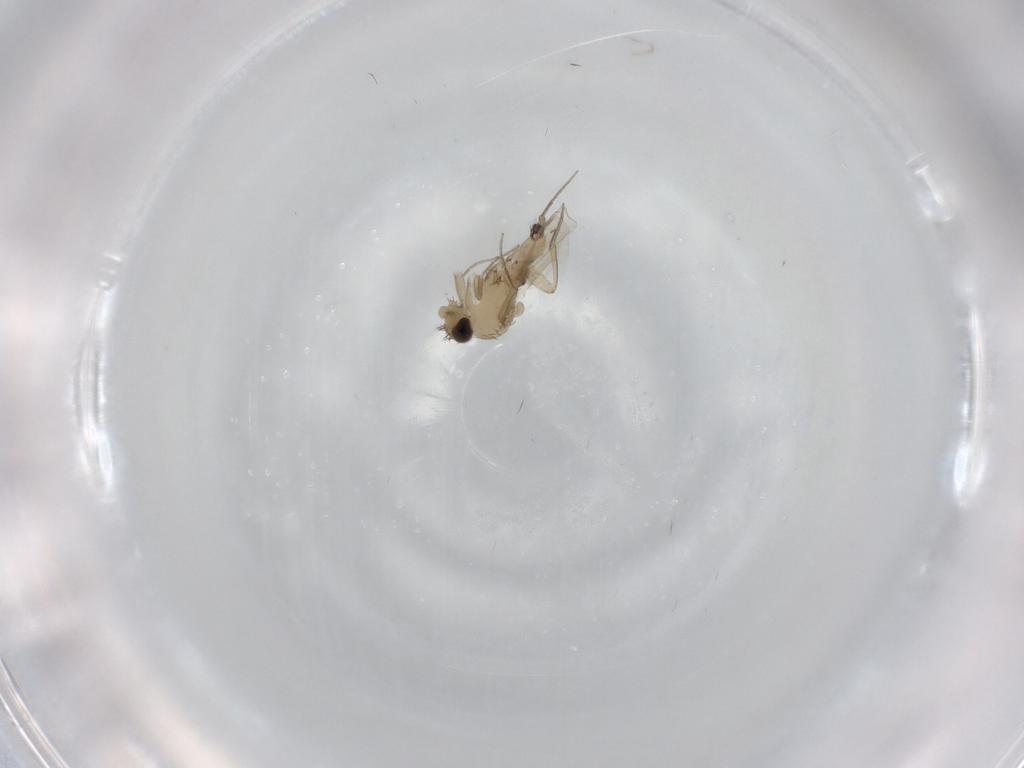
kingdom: Animalia
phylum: Arthropoda
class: Insecta
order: Diptera
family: Phoridae
